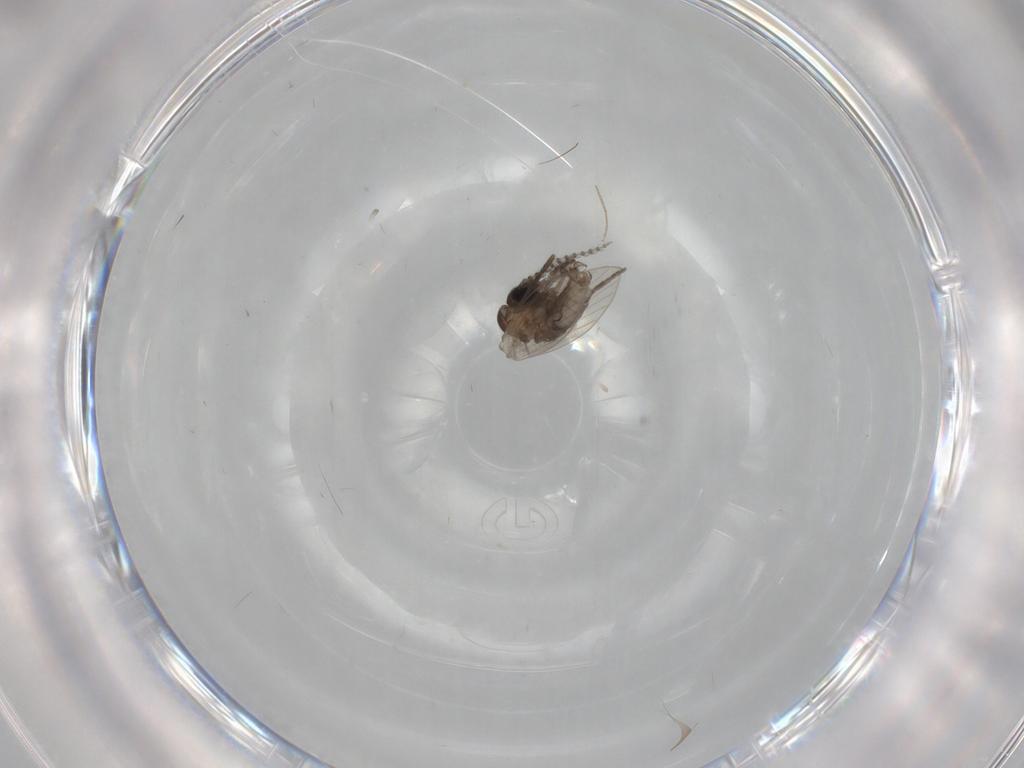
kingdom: Animalia
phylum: Arthropoda
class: Insecta
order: Diptera
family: Psychodidae
